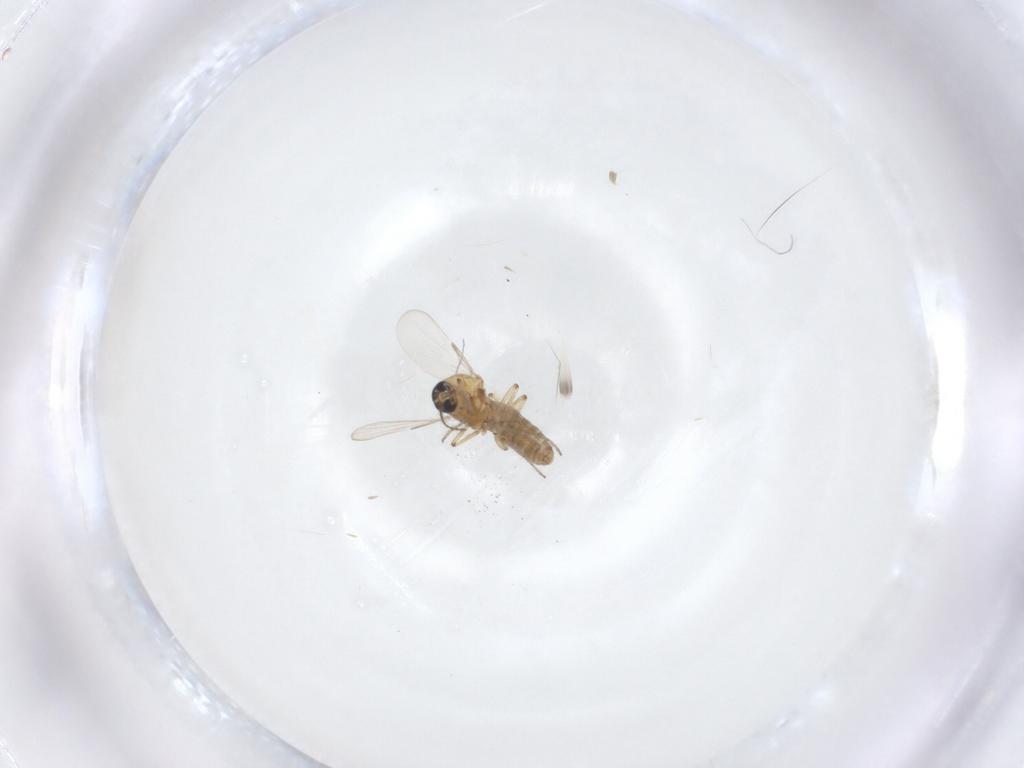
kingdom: Animalia
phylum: Arthropoda
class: Insecta
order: Diptera
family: Ceratopogonidae
